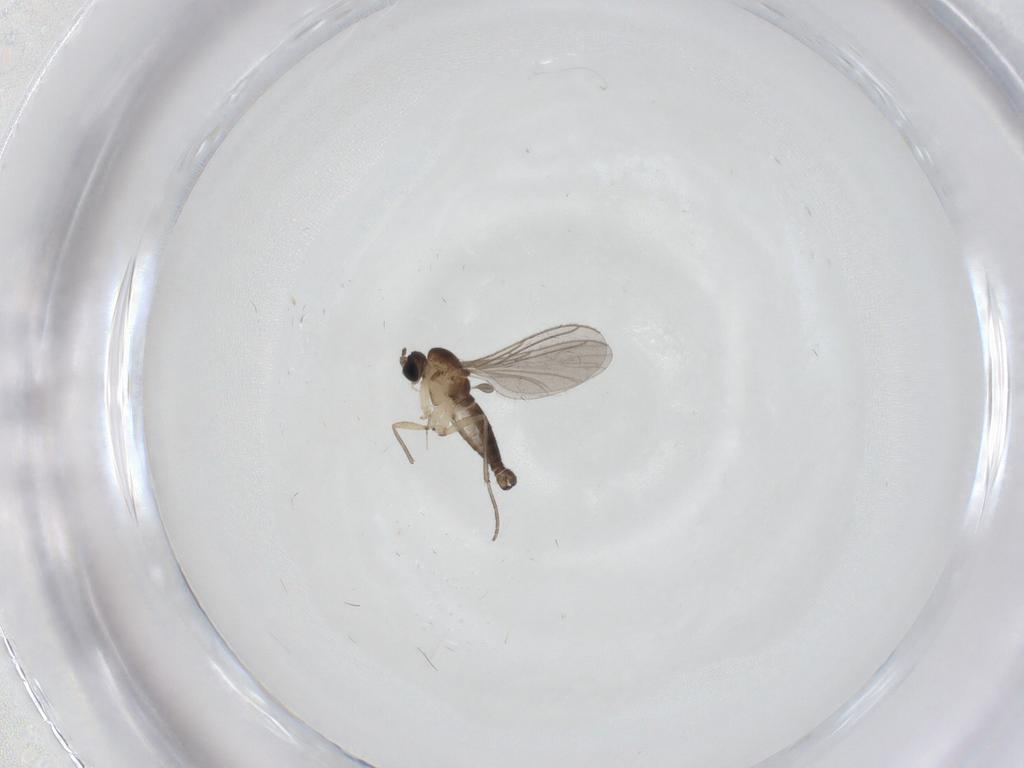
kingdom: Animalia
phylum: Arthropoda
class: Insecta
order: Diptera
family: Chironomidae
